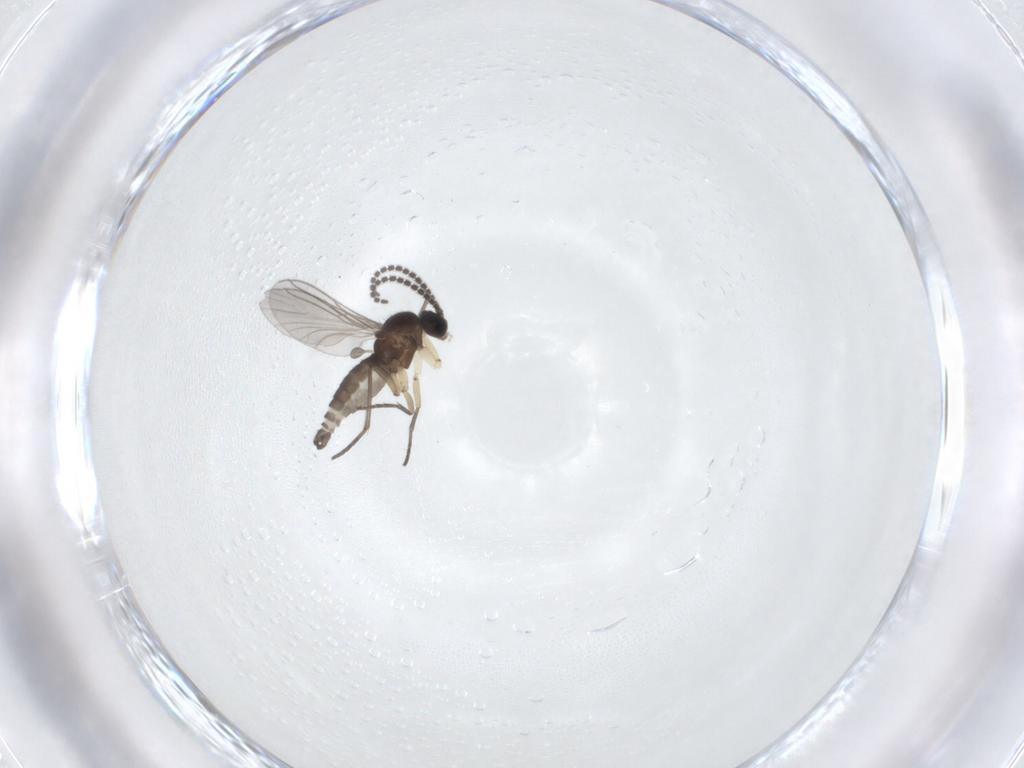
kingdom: Animalia
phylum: Arthropoda
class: Insecta
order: Diptera
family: Sciaridae
